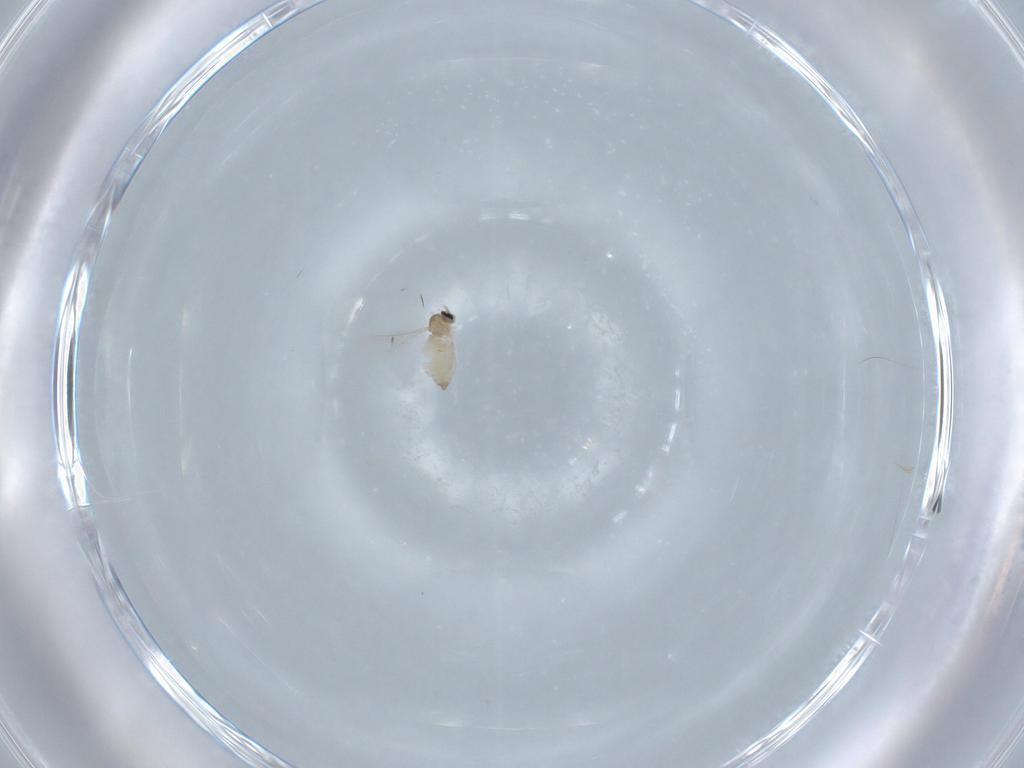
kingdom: Animalia
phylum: Arthropoda
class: Insecta
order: Diptera
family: Cecidomyiidae
